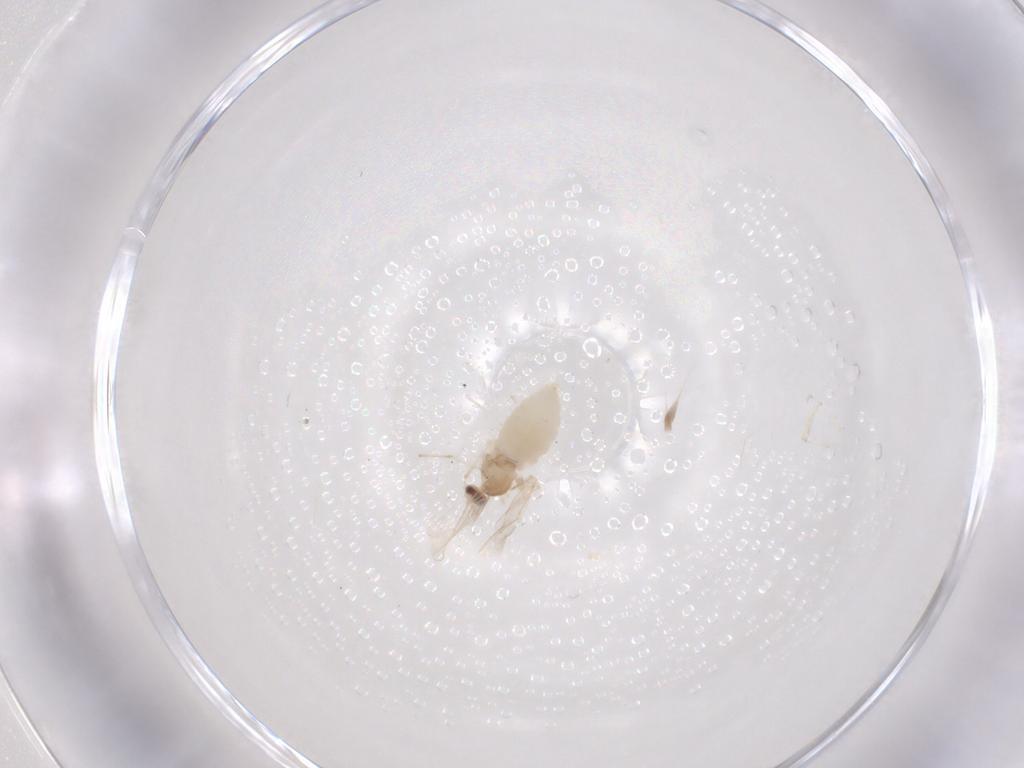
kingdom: Animalia
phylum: Arthropoda
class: Insecta
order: Diptera
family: Cecidomyiidae
